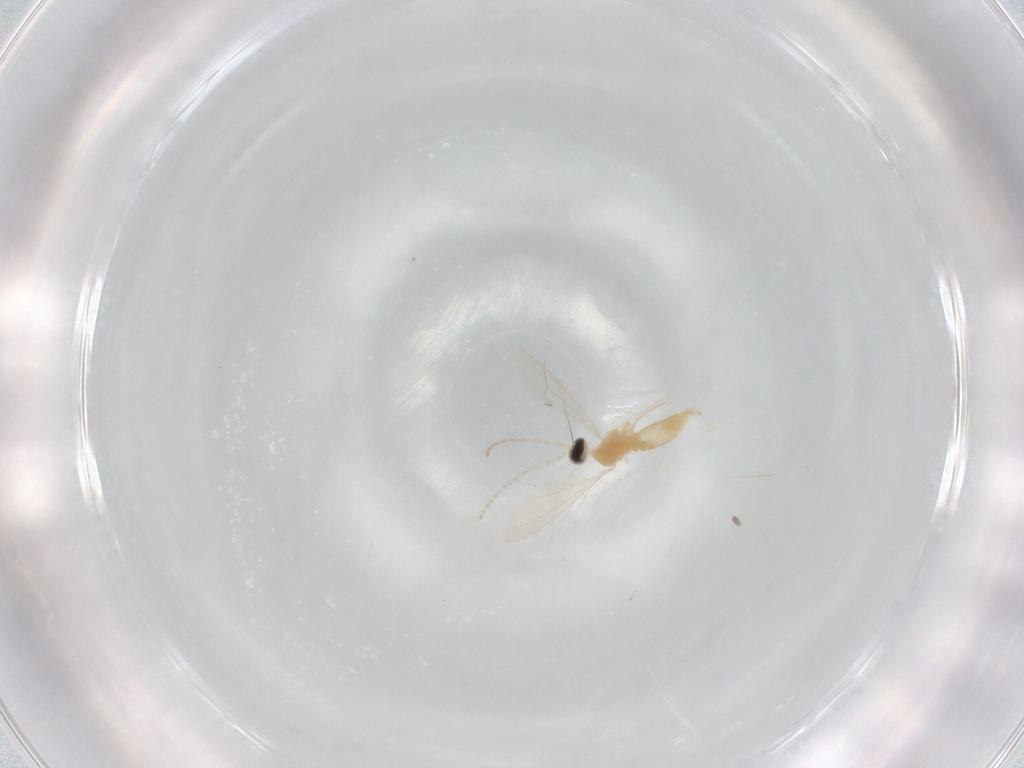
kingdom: Animalia
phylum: Arthropoda
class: Insecta
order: Diptera
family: Cecidomyiidae
